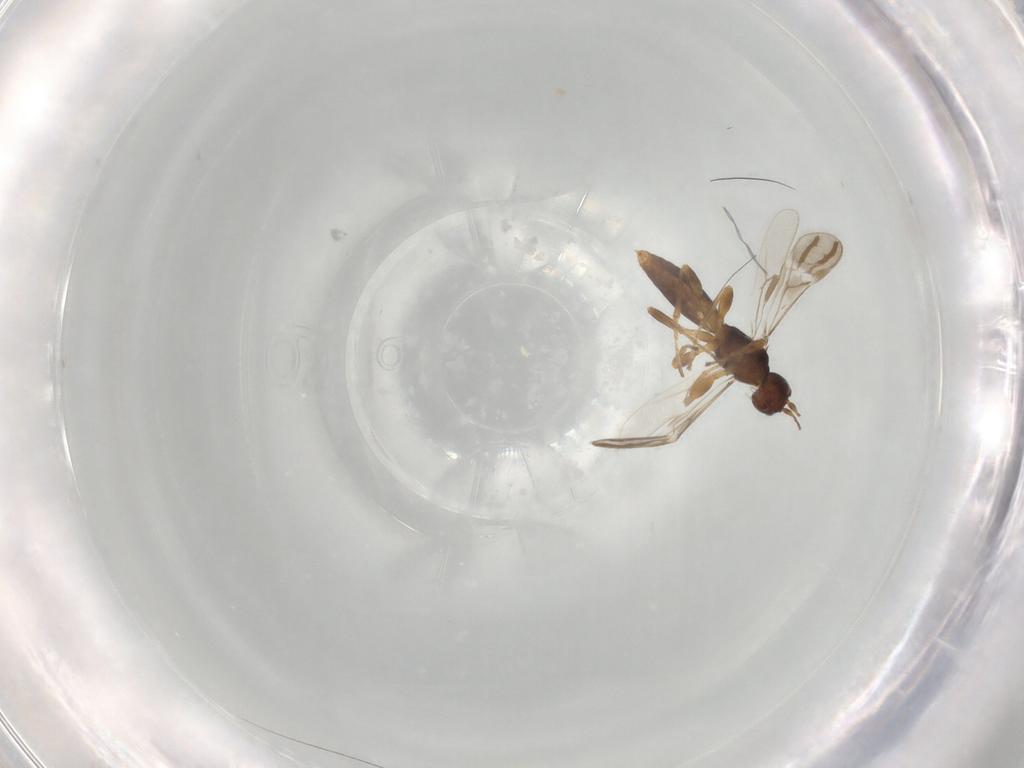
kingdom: Animalia
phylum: Arthropoda
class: Insecta
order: Hymenoptera
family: Braconidae
